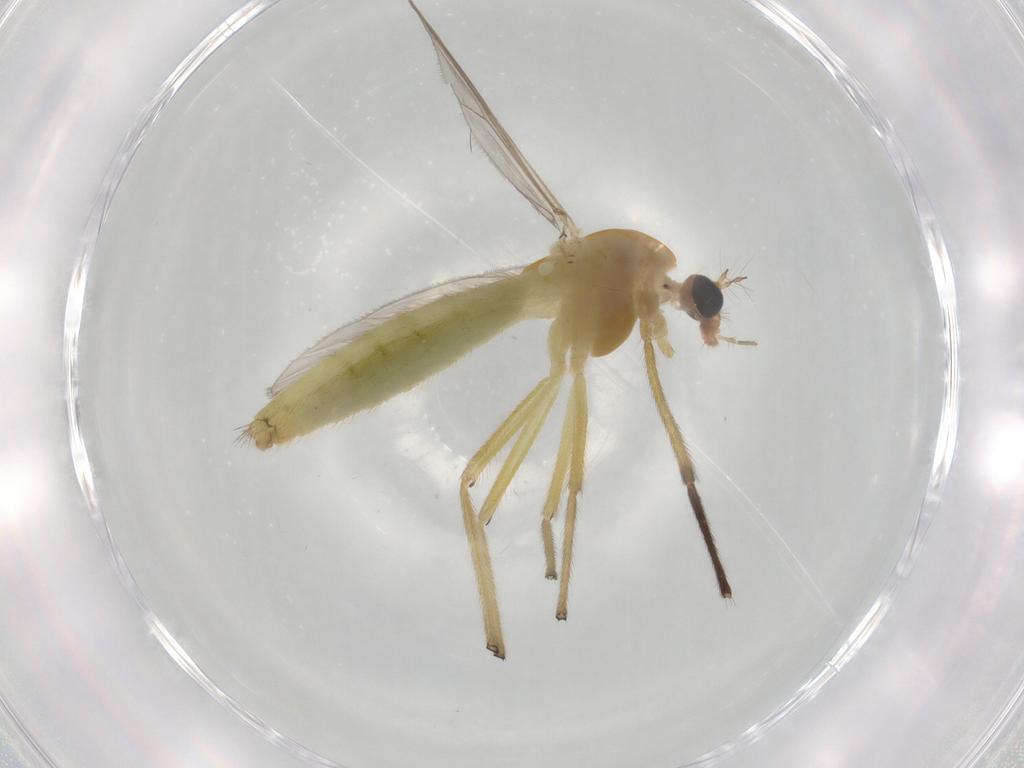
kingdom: Animalia
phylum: Arthropoda
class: Insecta
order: Diptera
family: Chironomidae
